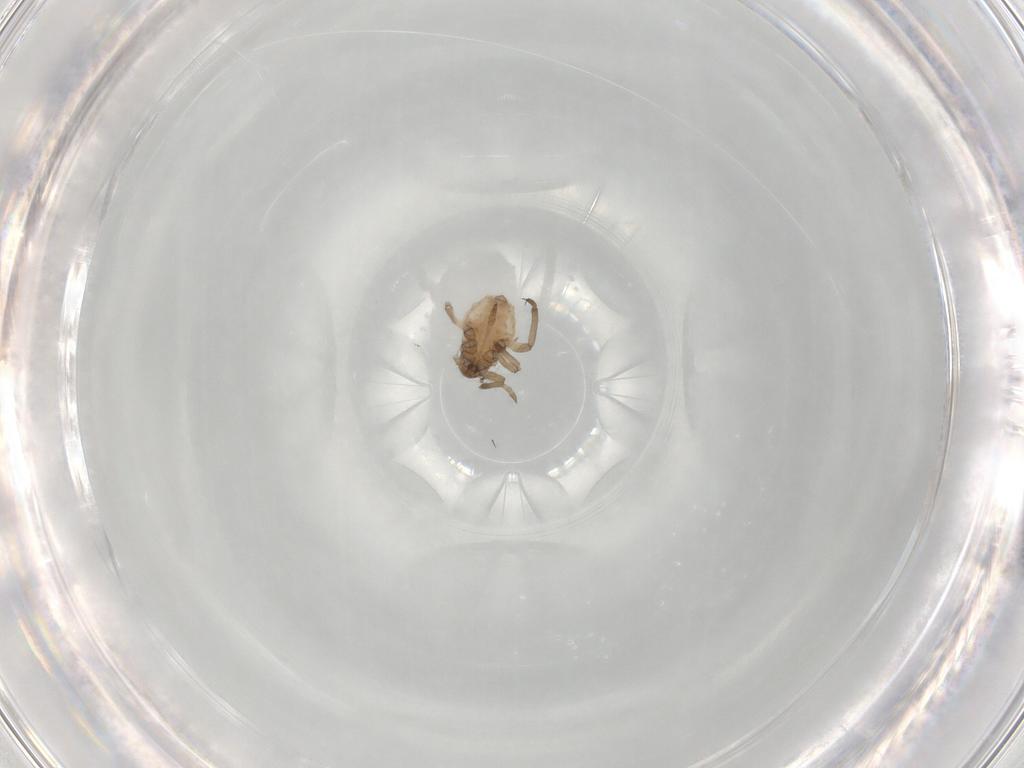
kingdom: Animalia
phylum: Arthropoda
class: Insecta
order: Hemiptera
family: Aphididae
